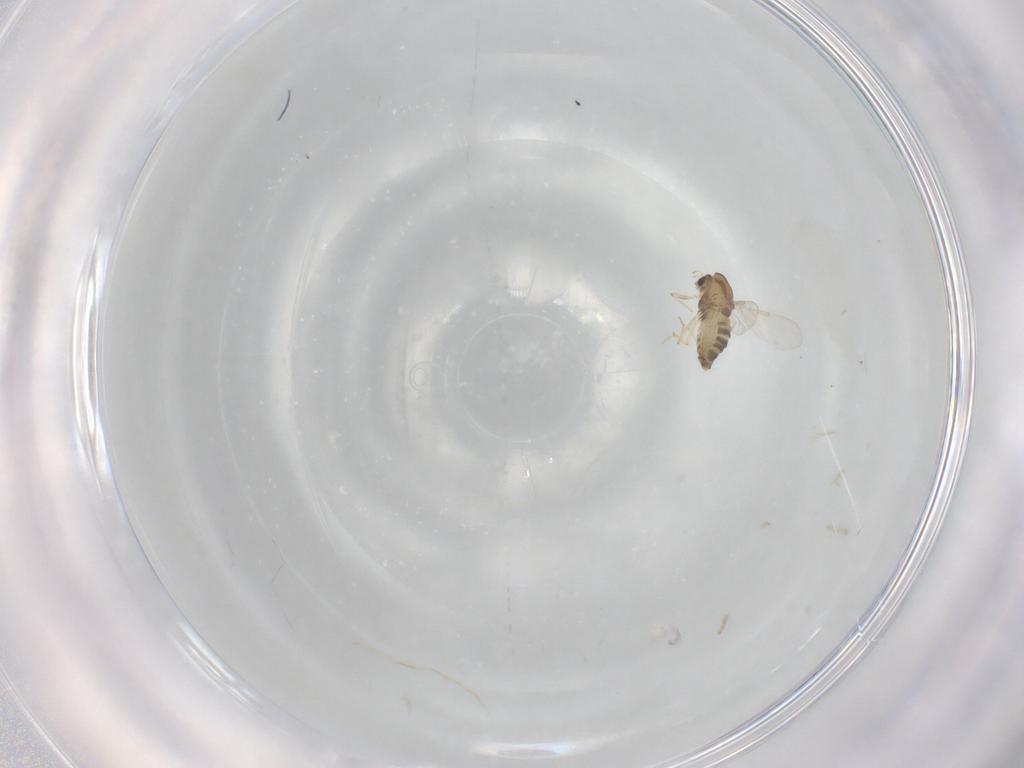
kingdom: Animalia
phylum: Arthropoda
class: Insecta
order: Diptera
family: Chironomidae
